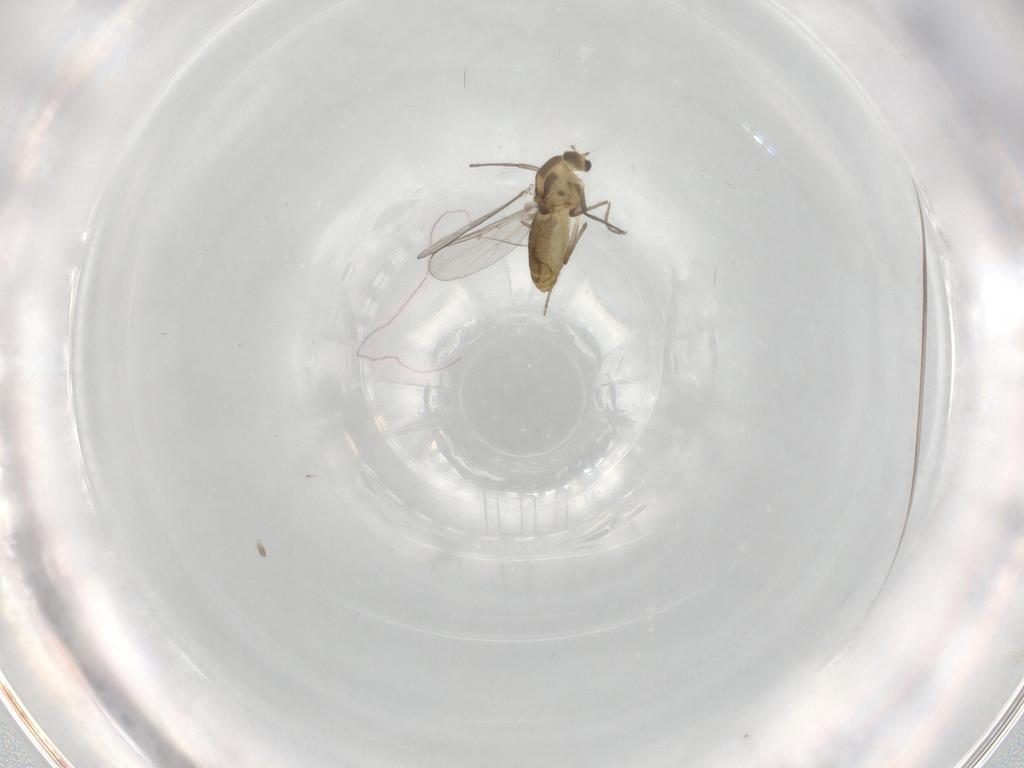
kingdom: Animalia
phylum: Arthropoda
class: Insecta
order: Diptera
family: Chironomidae
